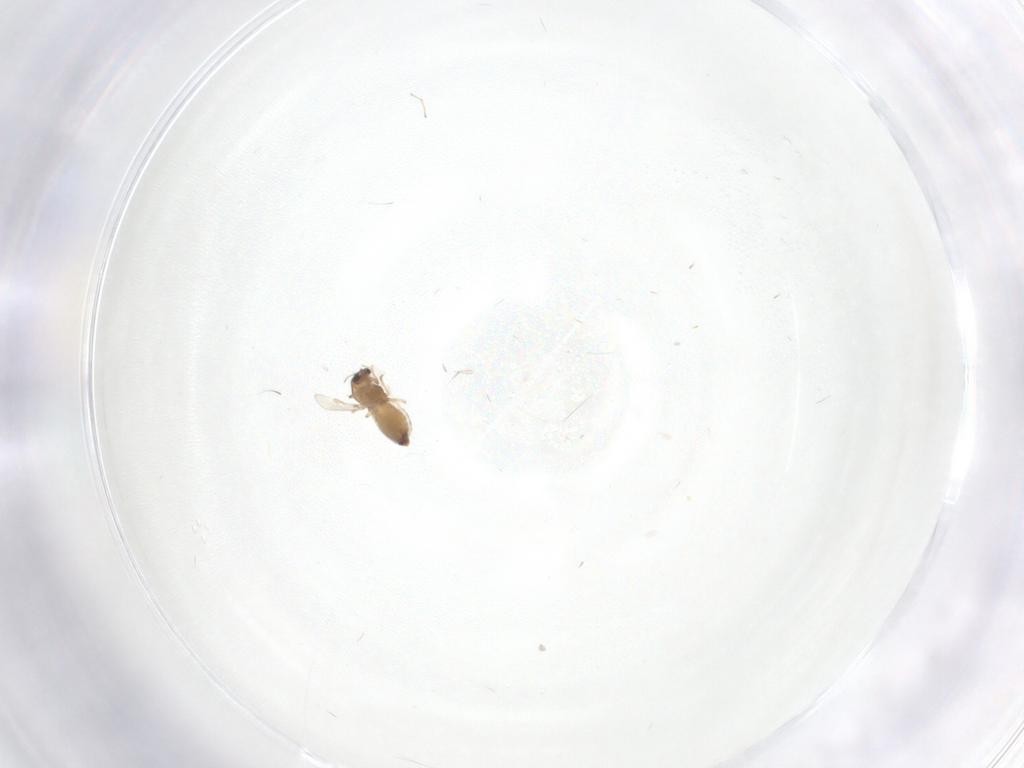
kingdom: Animalia
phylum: Arthropoda
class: Insecta
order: Diptera
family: Chironomidae
